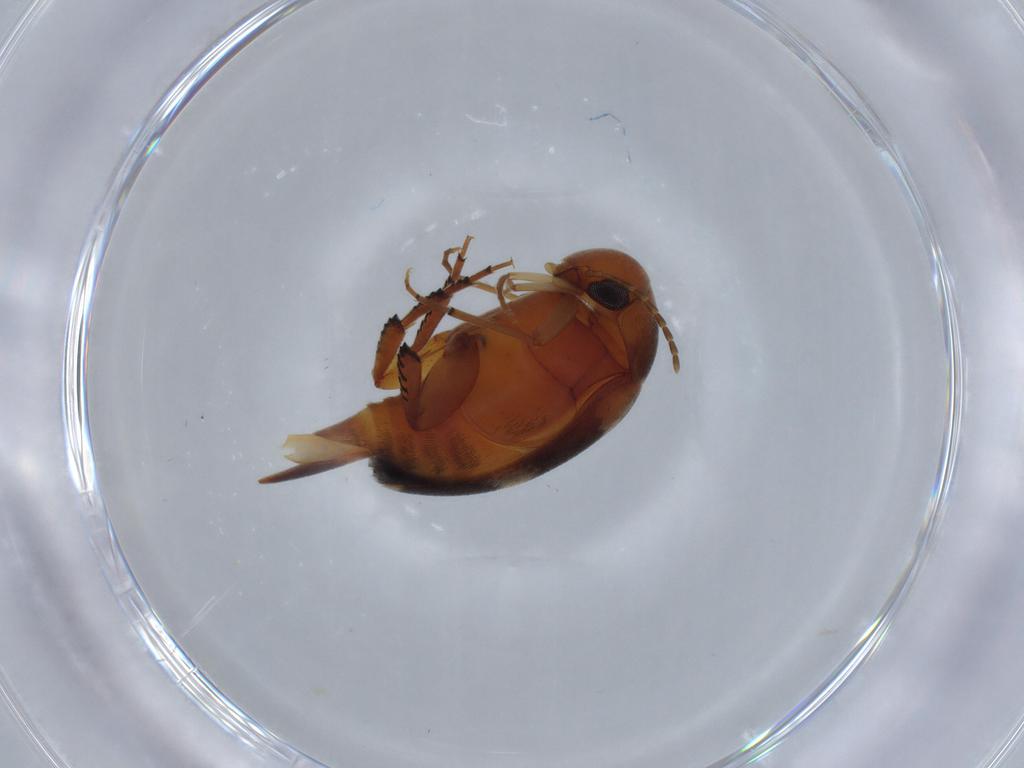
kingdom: Animalia
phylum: Arthropoda
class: Insecta
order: Coleoptera
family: Mordellidae
